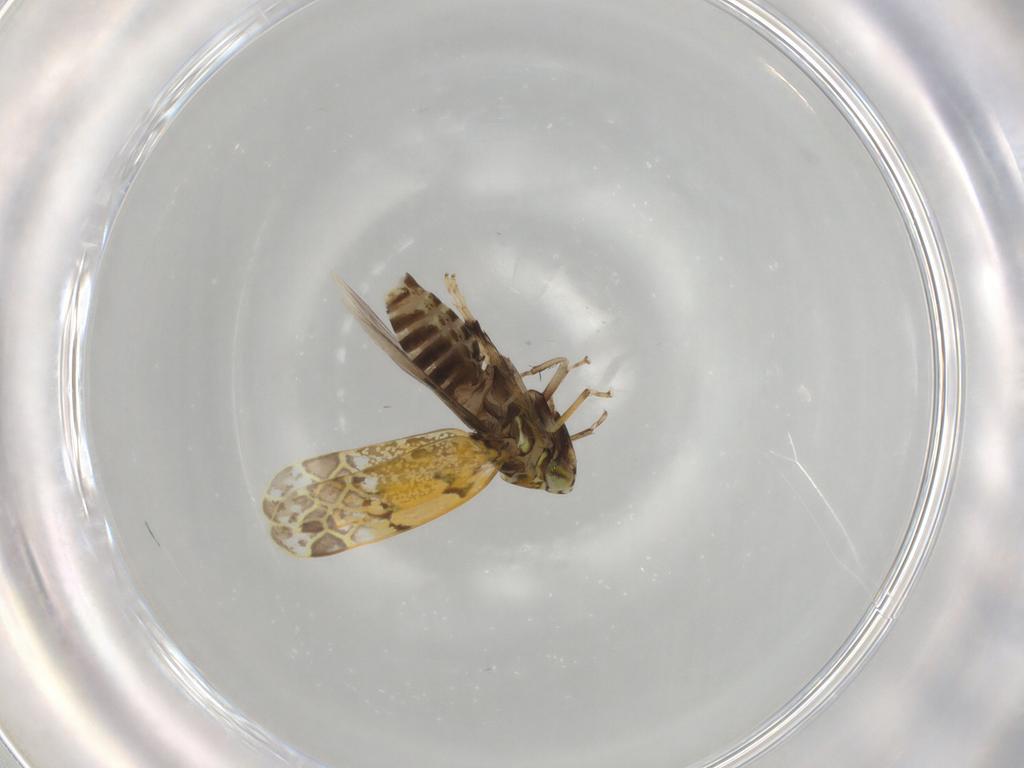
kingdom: Animalia
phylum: Arthropoda
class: Insecta
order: Hemiptera
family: Cicadellidae
